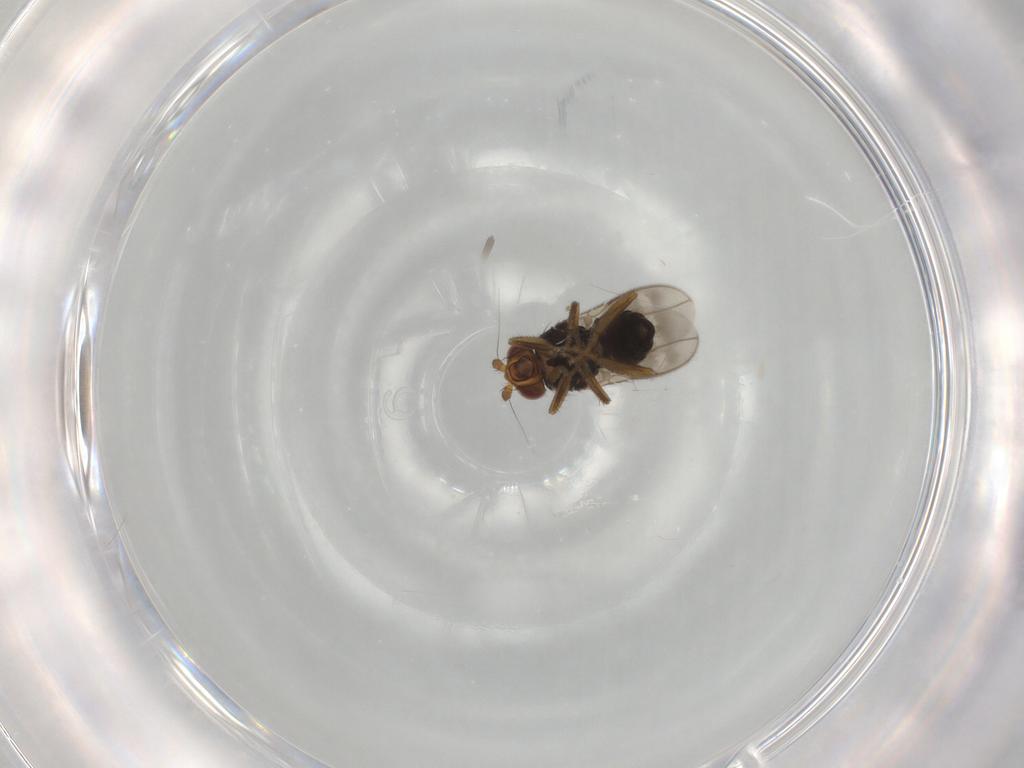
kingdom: Animalia
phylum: Arthropoda
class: Insecta
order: Diptera
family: Sphaeroceridae
